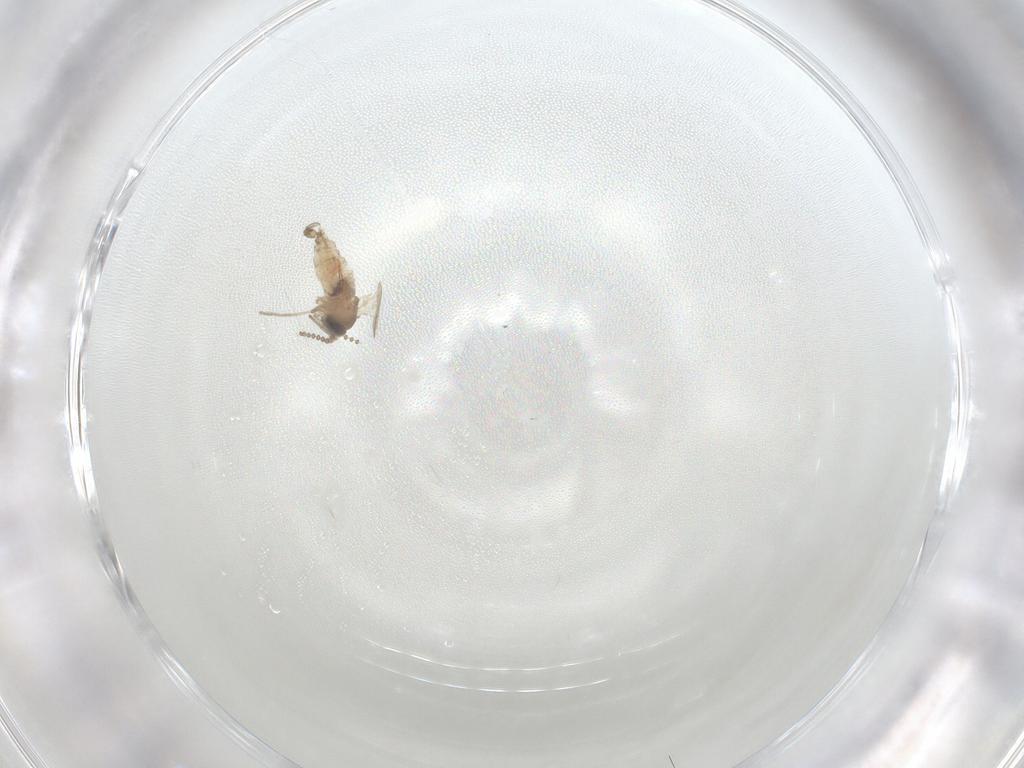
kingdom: Animalia
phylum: Arthropoda
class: Insecta
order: Diptera
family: Psychodidae
